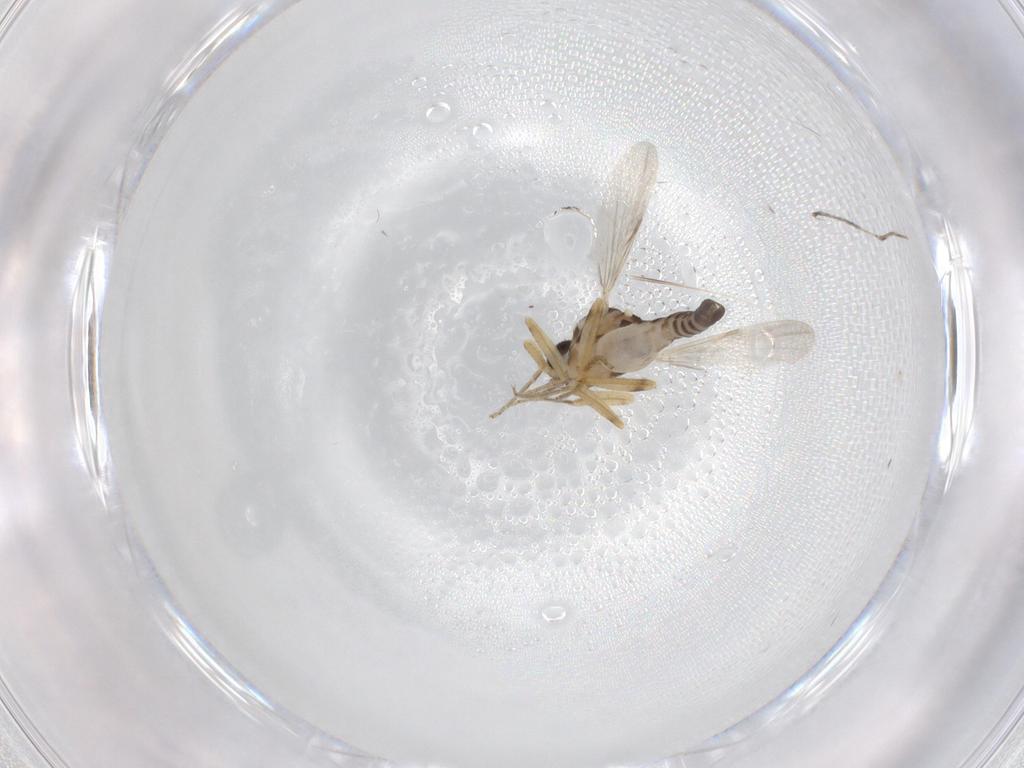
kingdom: Animalia
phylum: Arthropoda
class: Insecta
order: Diptera
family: Ceratopogonidae
